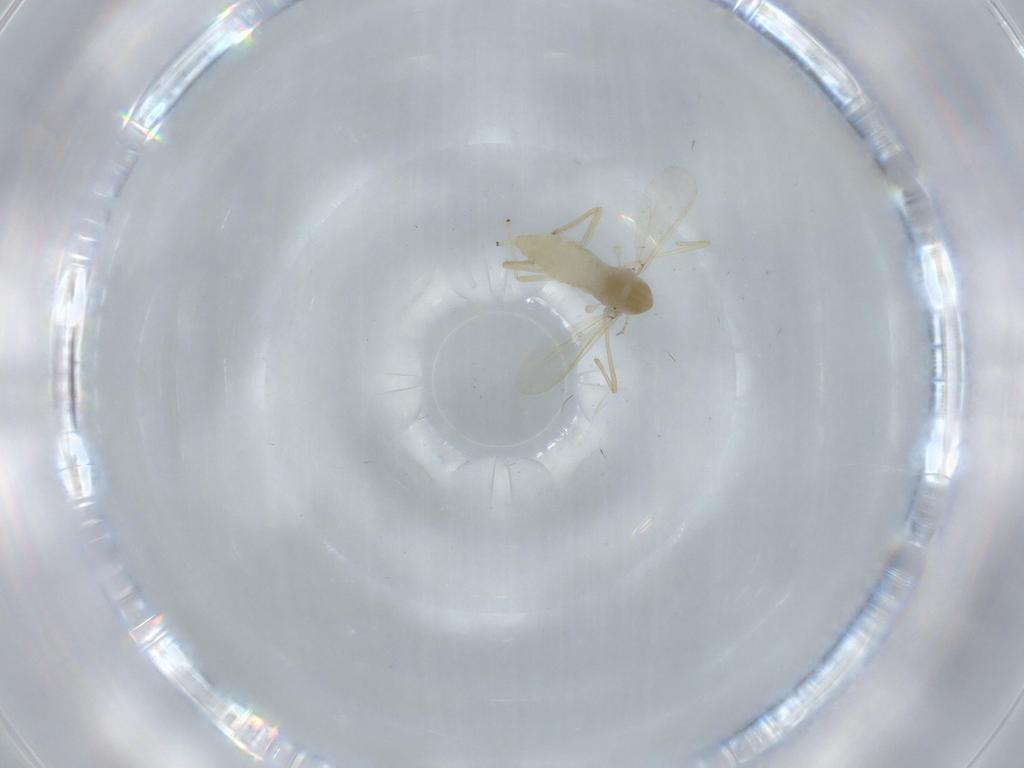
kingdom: Animalia
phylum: Arthropoda
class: Insecta
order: Diptera
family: Chironomidae
